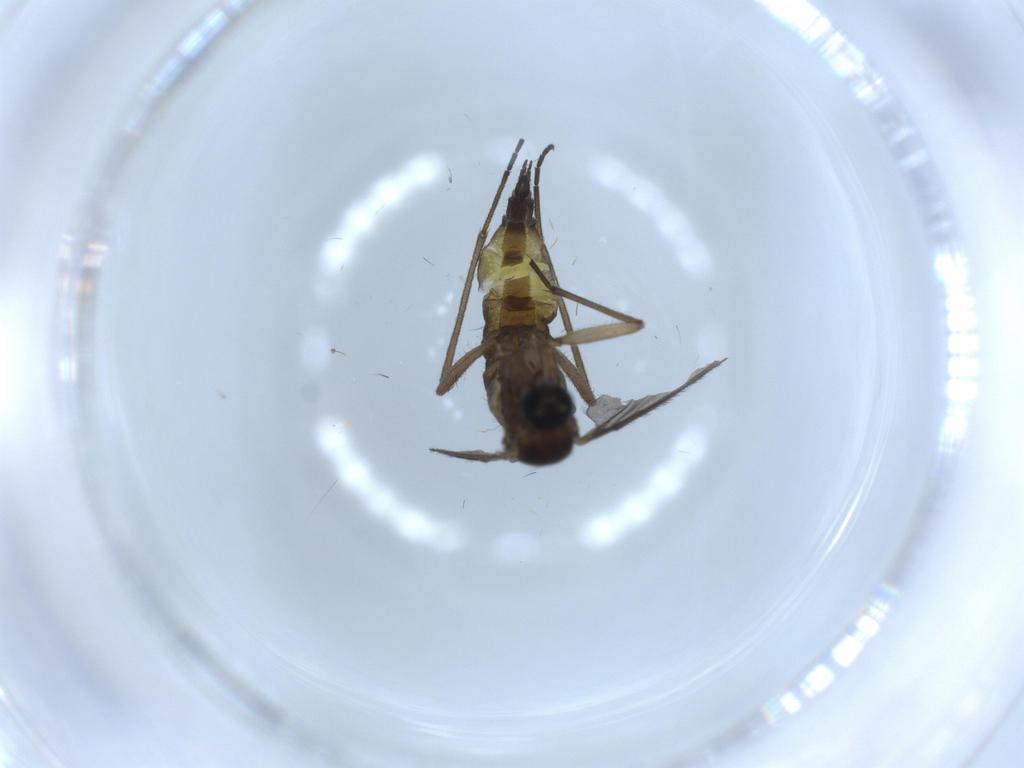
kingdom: Animalia
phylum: Arthropoda
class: Insecta
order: Diptera
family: Sciaridae
